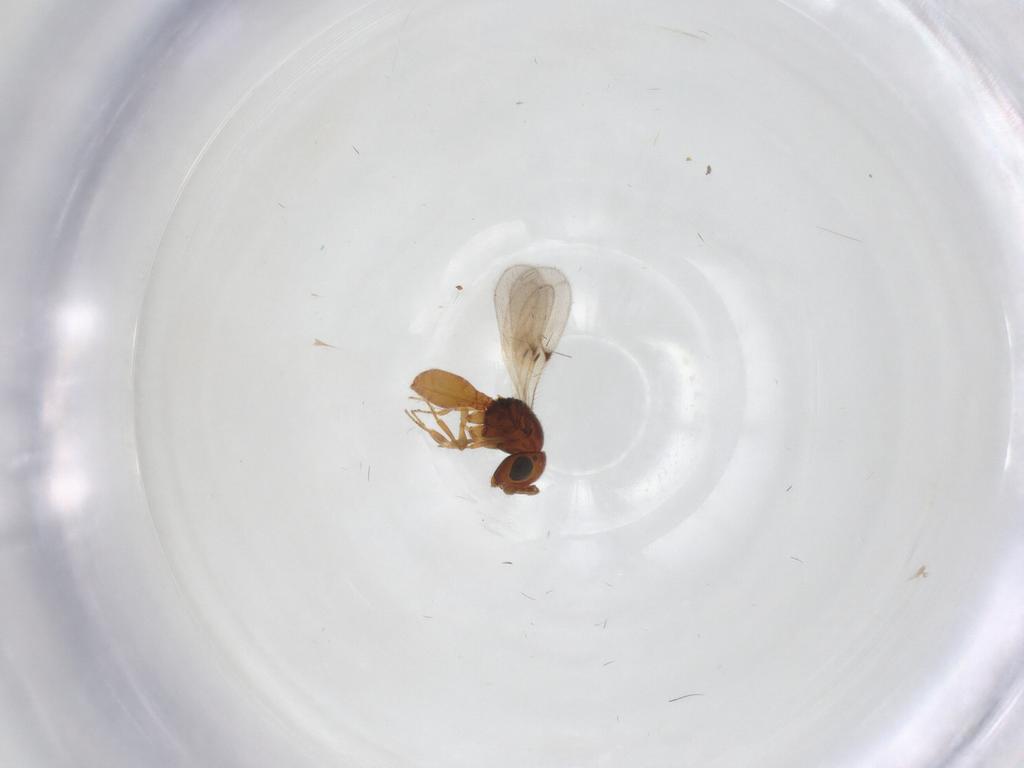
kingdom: Animalia
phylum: Arthropoda
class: Insecta
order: Hymenoptera
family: Scelionidae
